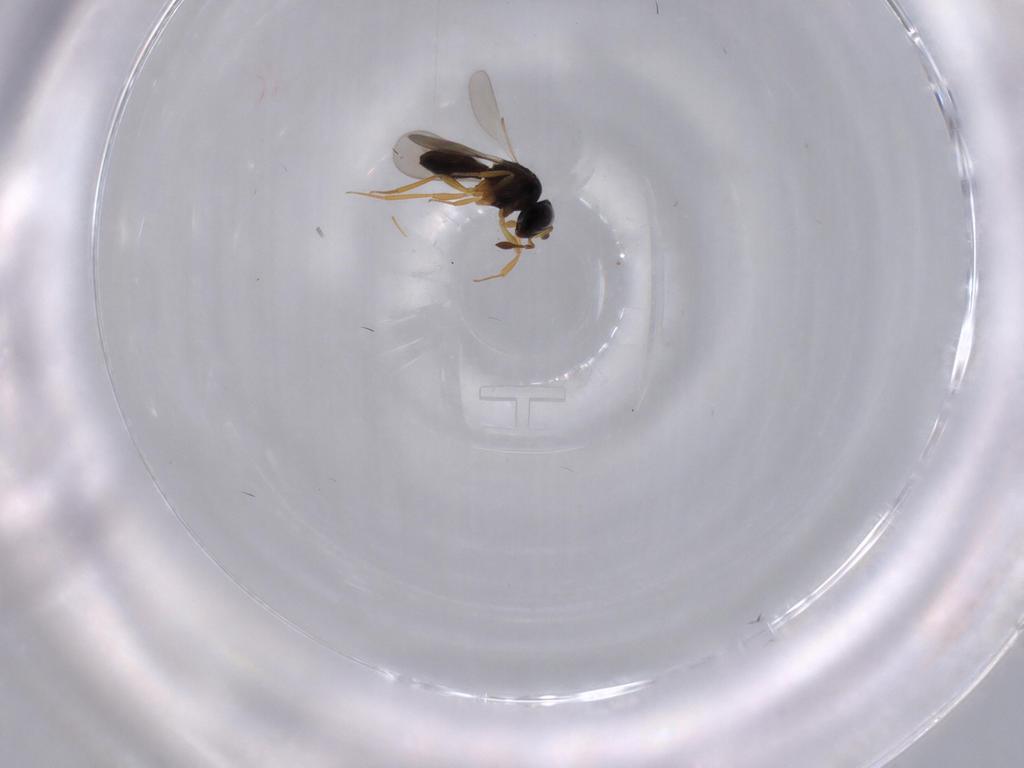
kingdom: Animalia
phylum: Arthropoda
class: Insecta
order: Hymenoptera
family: Scelionidae
